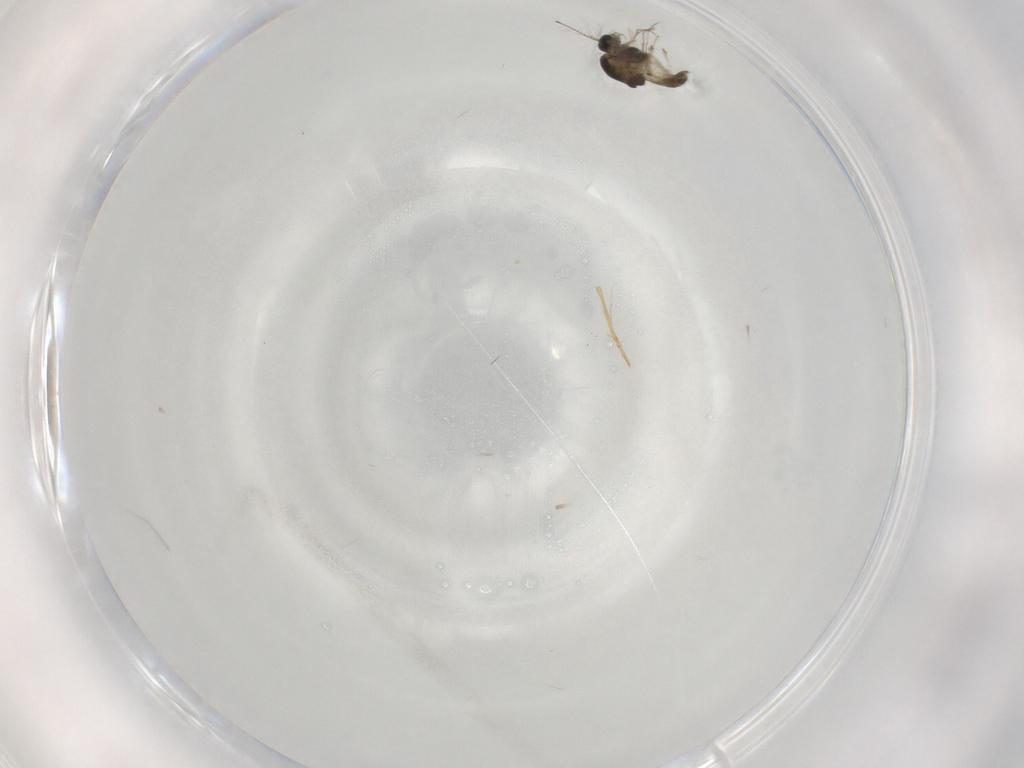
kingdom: Animalia
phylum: Arthropoda
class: Insecta
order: Diptera
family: Chironomidae
